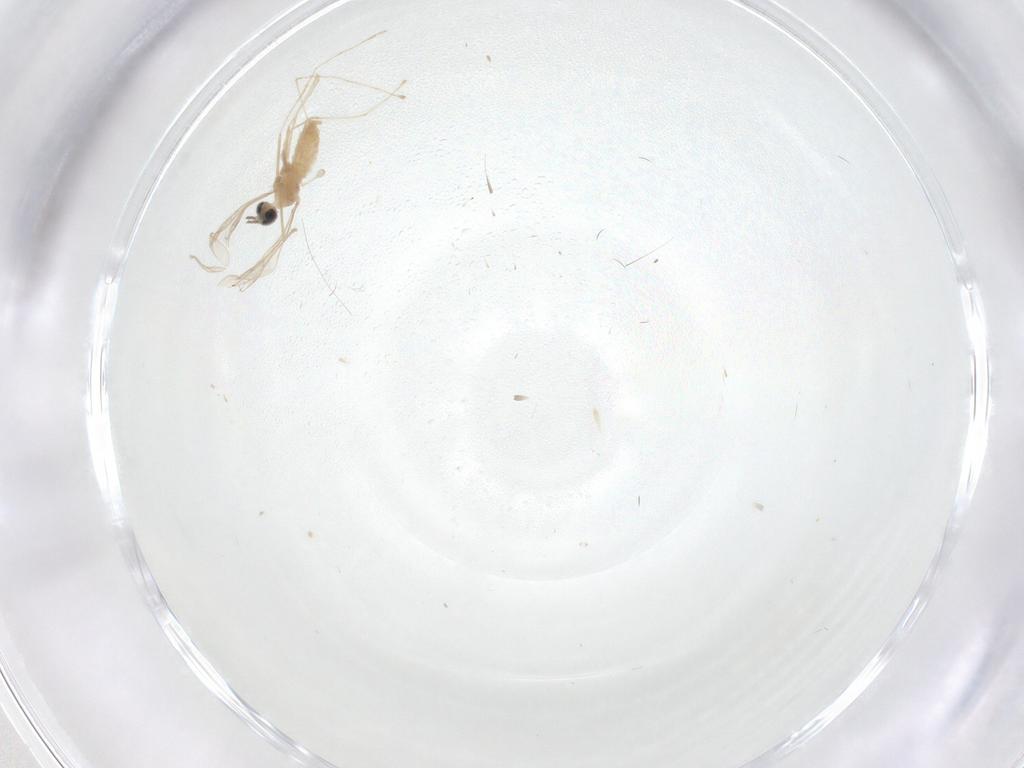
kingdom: Animalia
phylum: Arthropoda
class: Insecta
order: Diptera
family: Cecidomyiidae
